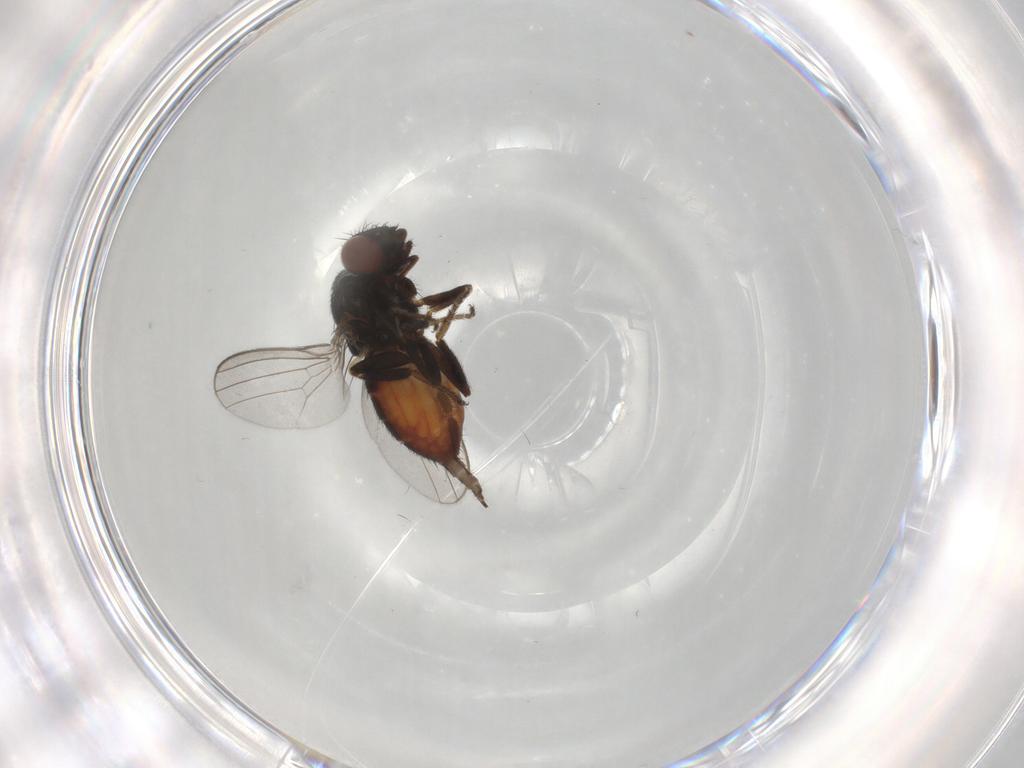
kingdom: Animalia
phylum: Arthropoda
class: Insecta
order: Diptera
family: Milichiidae
